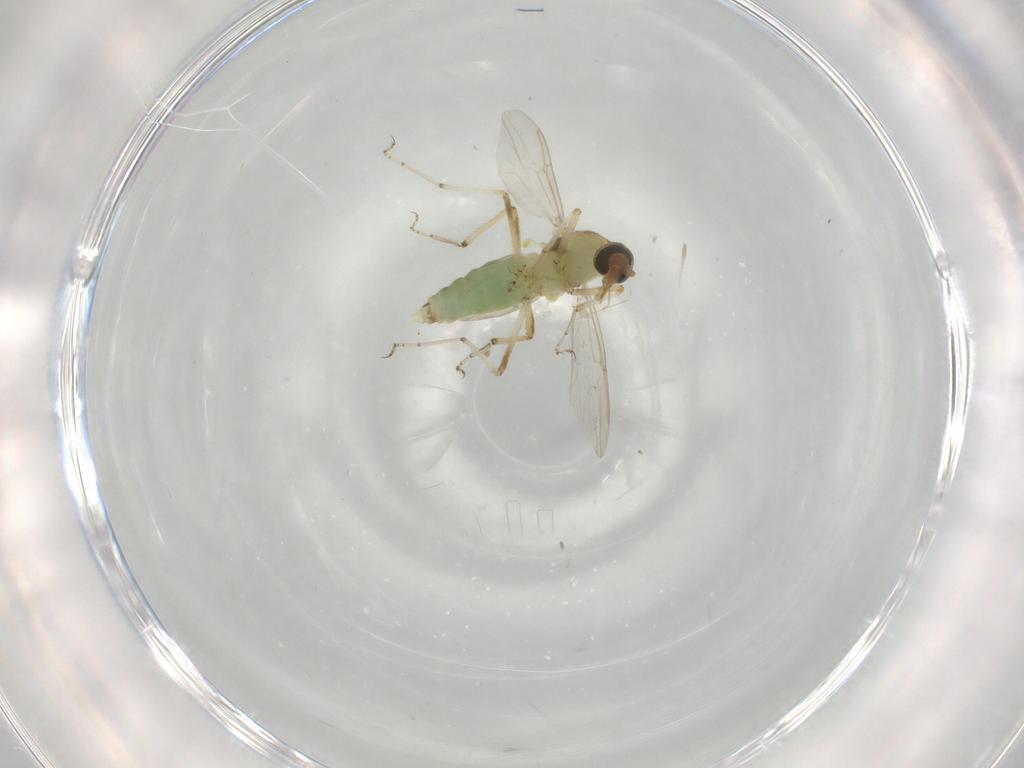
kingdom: Animalia
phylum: Arthropoda
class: Insecta
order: Diptera
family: Ceratopogonidae
